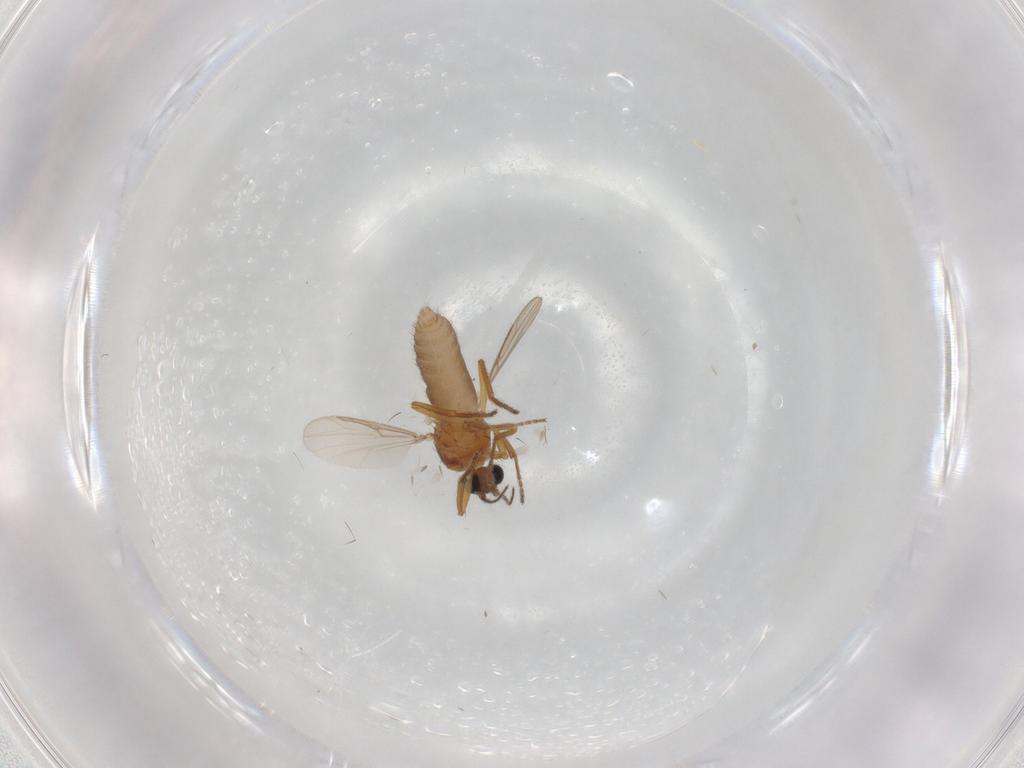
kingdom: Animalia
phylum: Arthropoda
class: Insecta
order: Diptera
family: Ceratopogonidae
